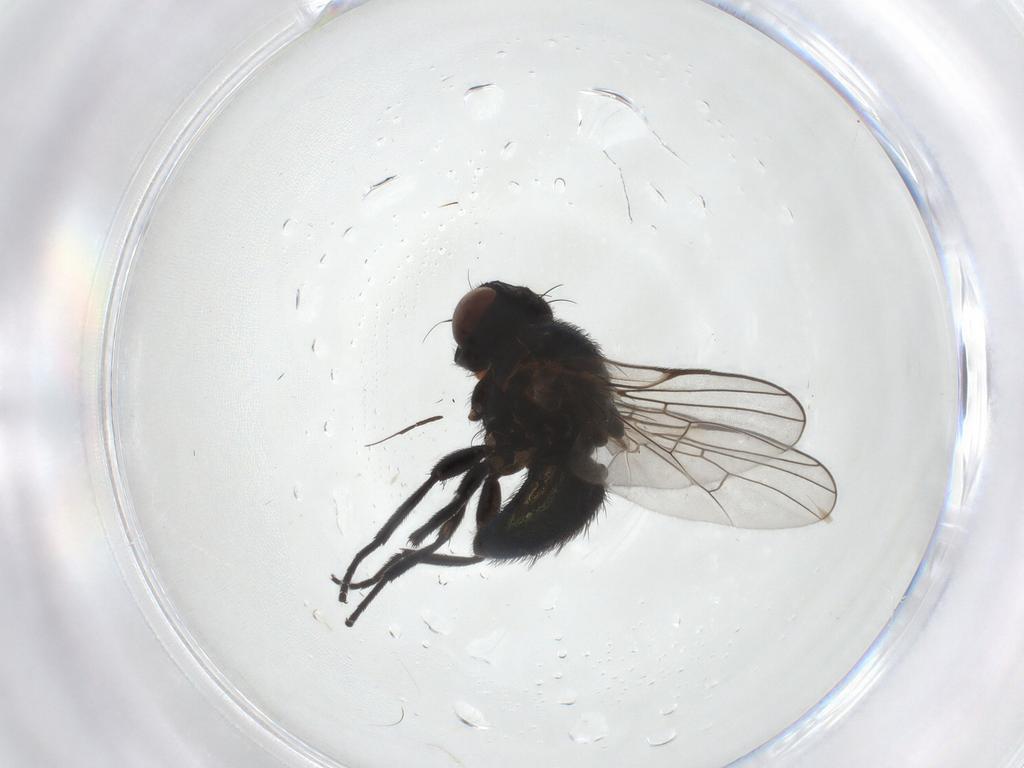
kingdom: Animalia
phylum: Arthropoda
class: Insecta
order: Diptera
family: Agromyzidae
